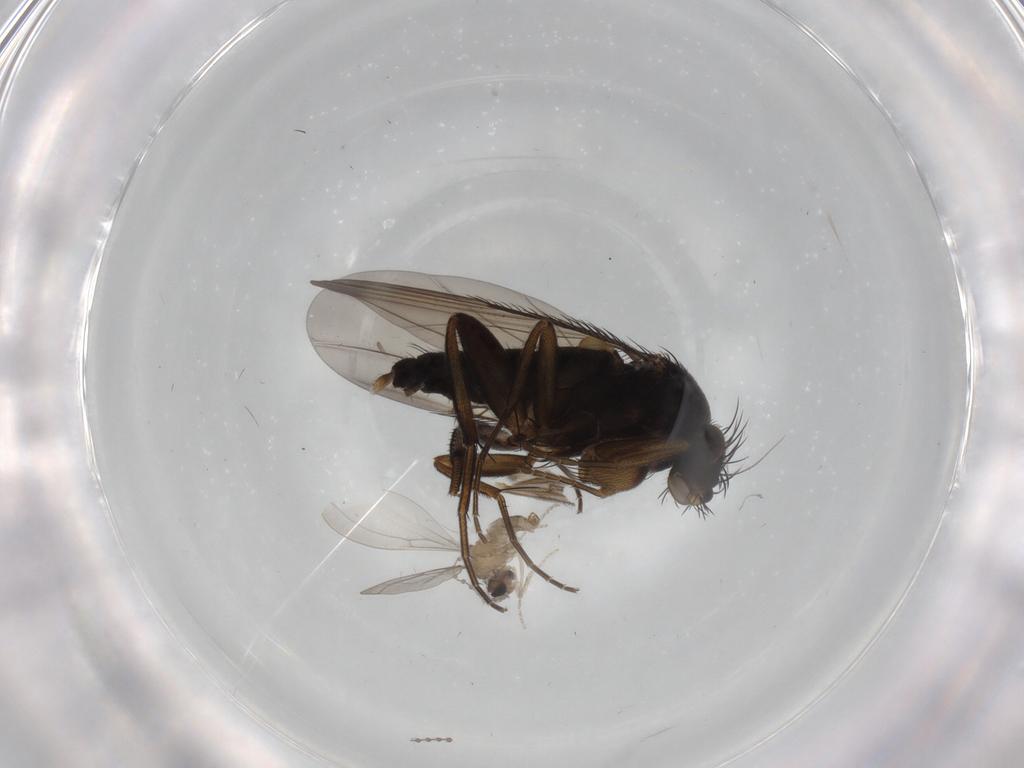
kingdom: Animalia
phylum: Arthropoda
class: Insecta
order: Diptera
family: Phoridae
